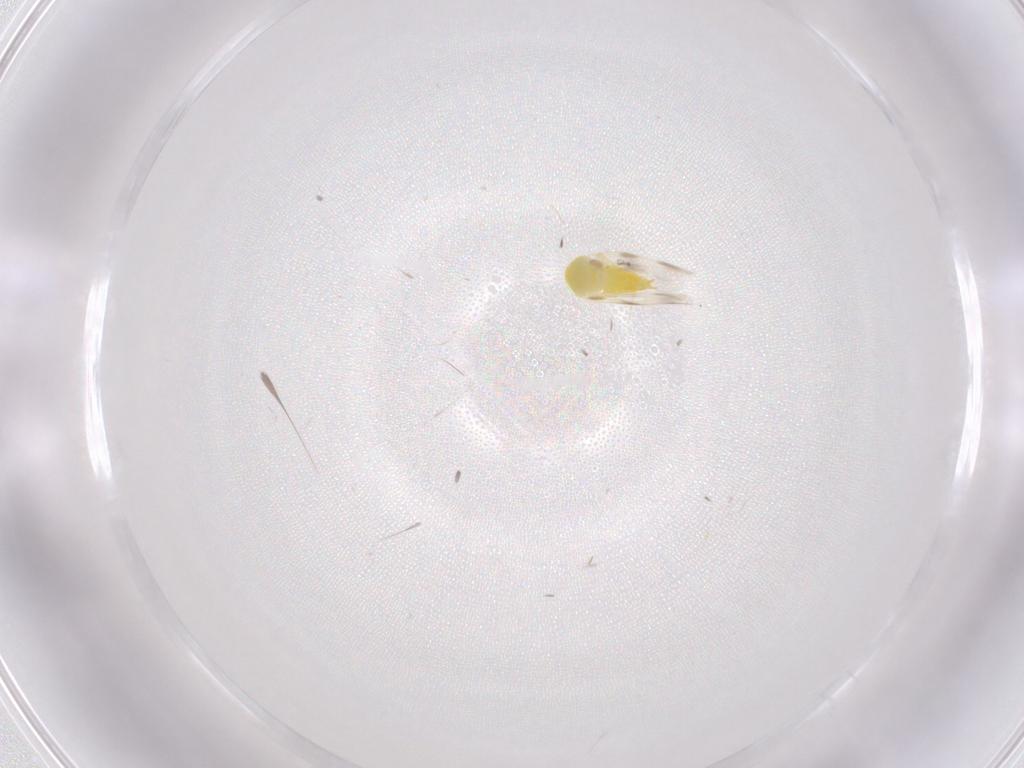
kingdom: Animalia
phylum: Arthropoda
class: Insecta
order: Hemiptera
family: Aleyrodidae
